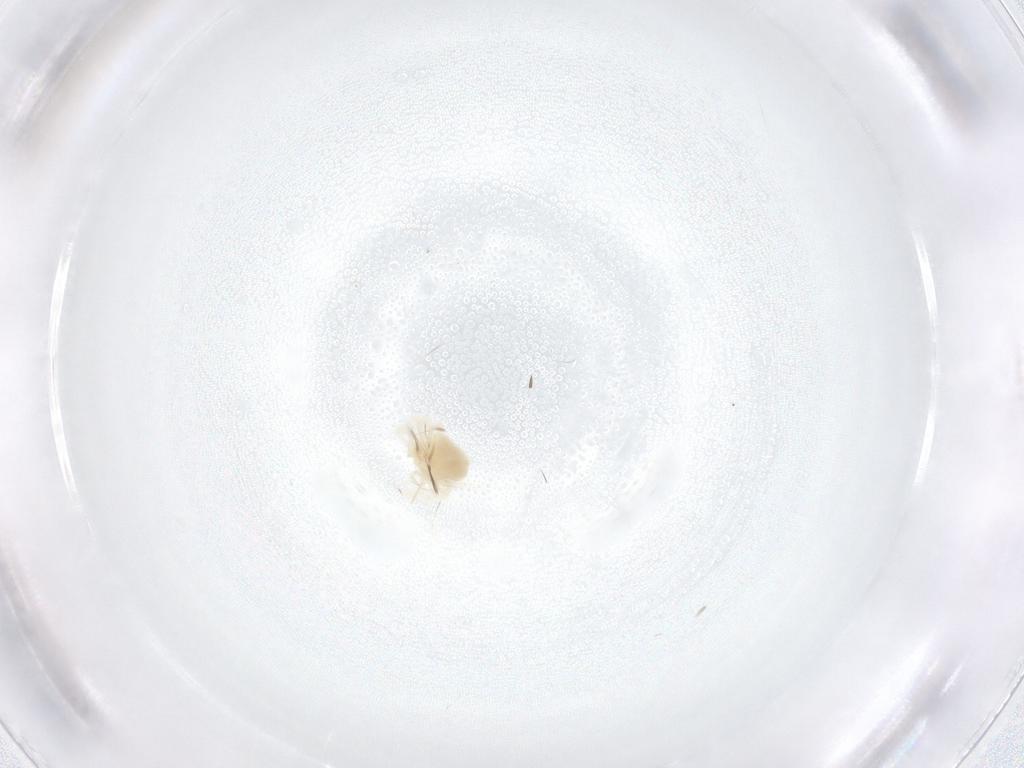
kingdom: Animalia
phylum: Arthropoda
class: Arachnida
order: Trombidiformes
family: Anystidae
